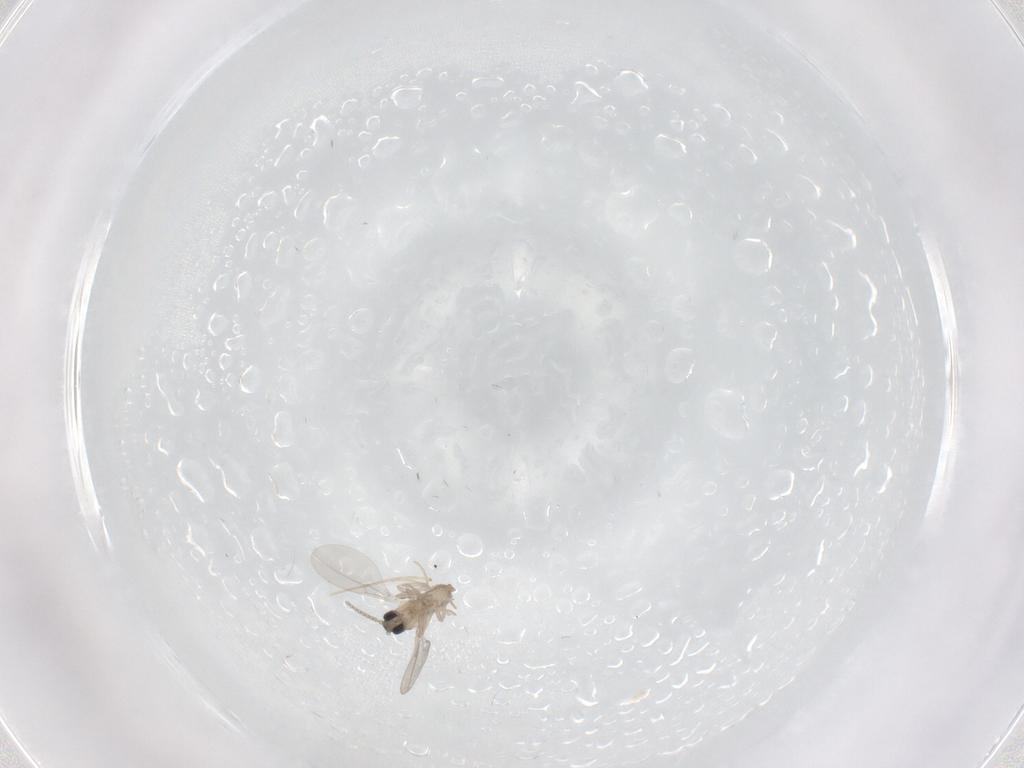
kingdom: Animalia
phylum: Arthropoda
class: Insecta
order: Diptera
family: Cecidomyiidae
